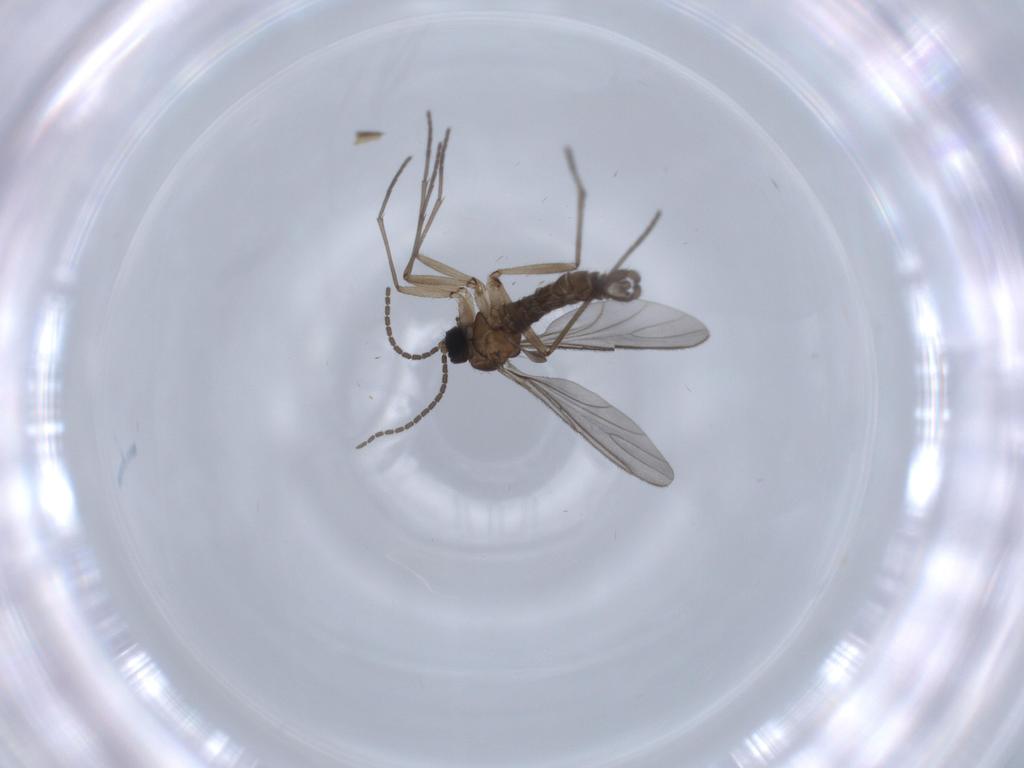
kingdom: Animalia
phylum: Arthropoda
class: Insecta
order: Diptera
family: Sciaridae
